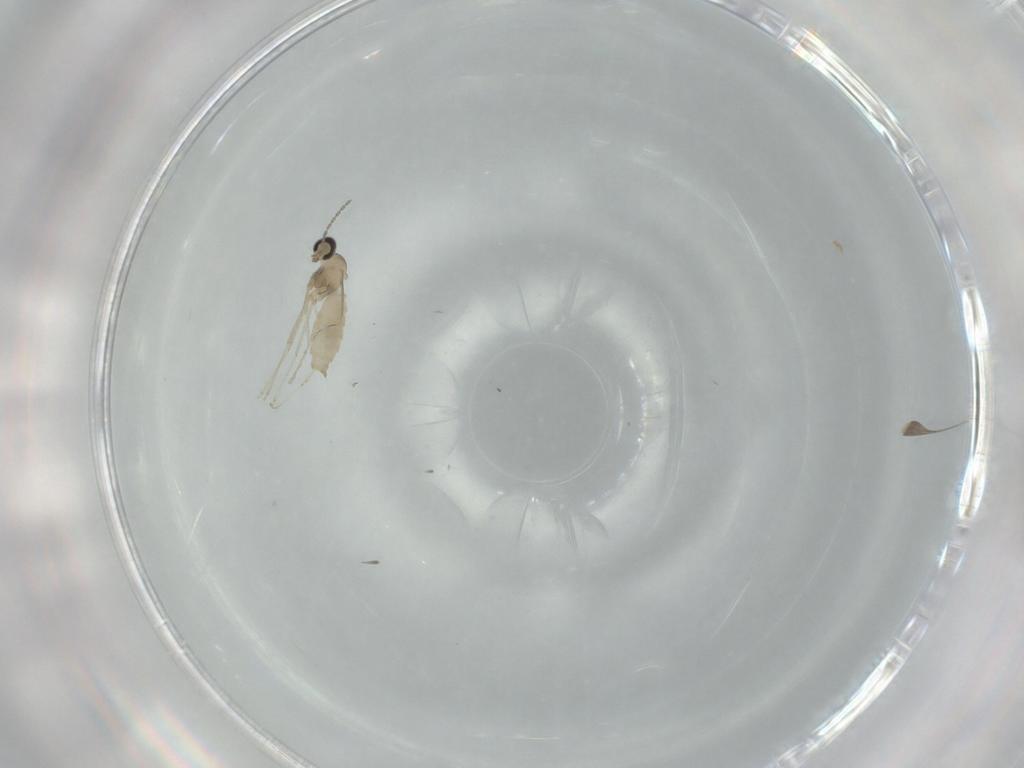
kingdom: Animalia
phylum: Arthropoda
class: Insecta
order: Diptera
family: Cecidomyiidae
